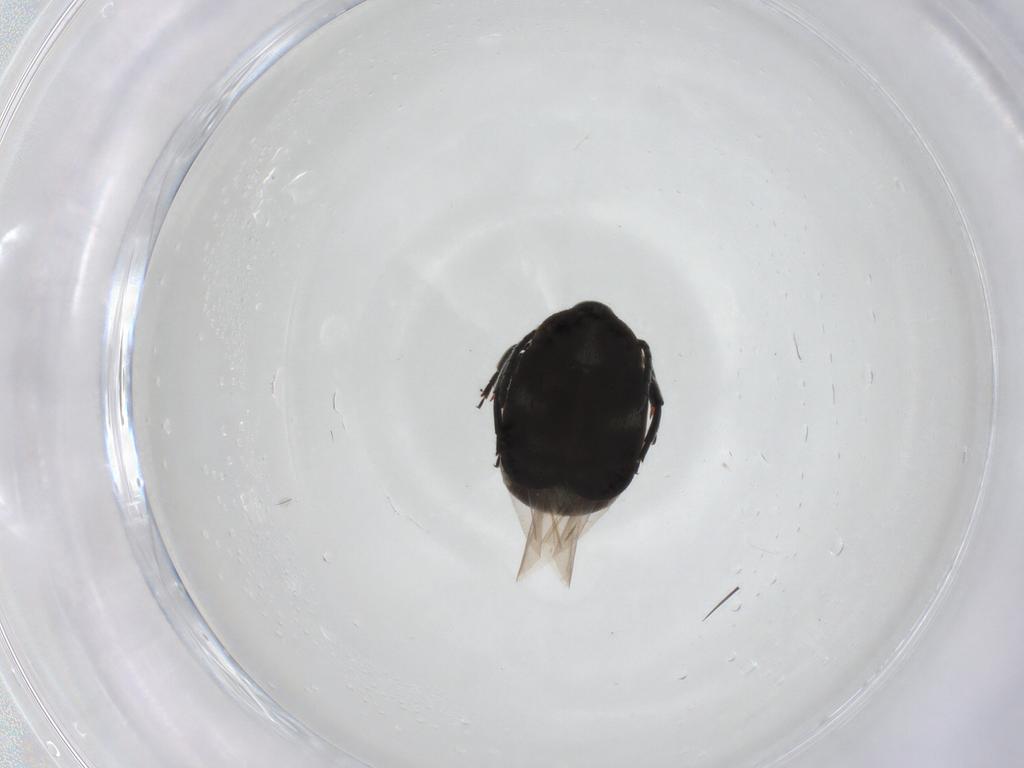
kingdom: Animalia
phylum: Arthropoda
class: Insecta
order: Coleoptera
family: Chrysomelidae
